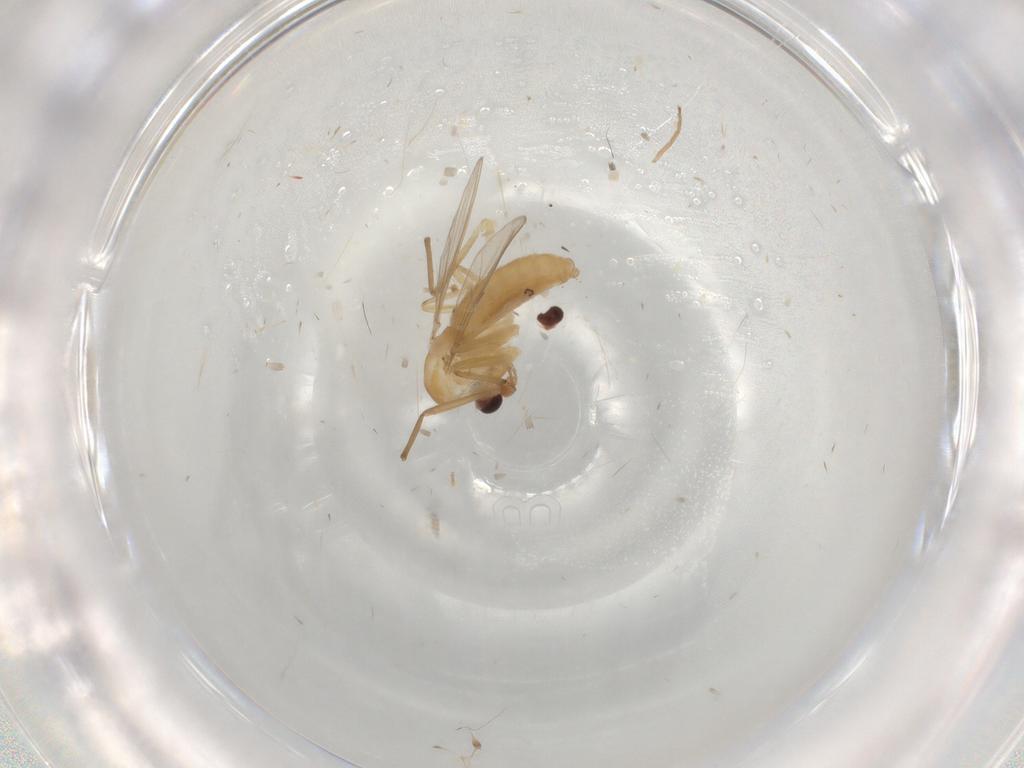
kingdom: Animalia
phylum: Arthropoda
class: Insecta
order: Diptera
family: Chironomidae
